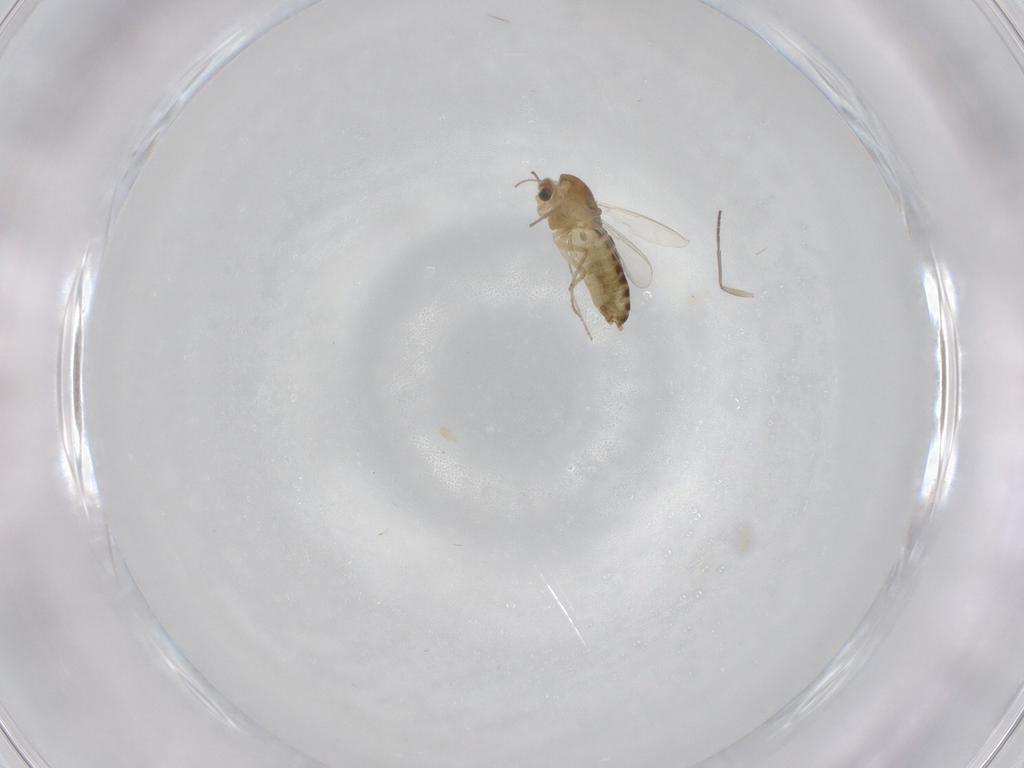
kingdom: Animalia
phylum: Arthropoda
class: Insecta
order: Diptera
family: Chironomidae
